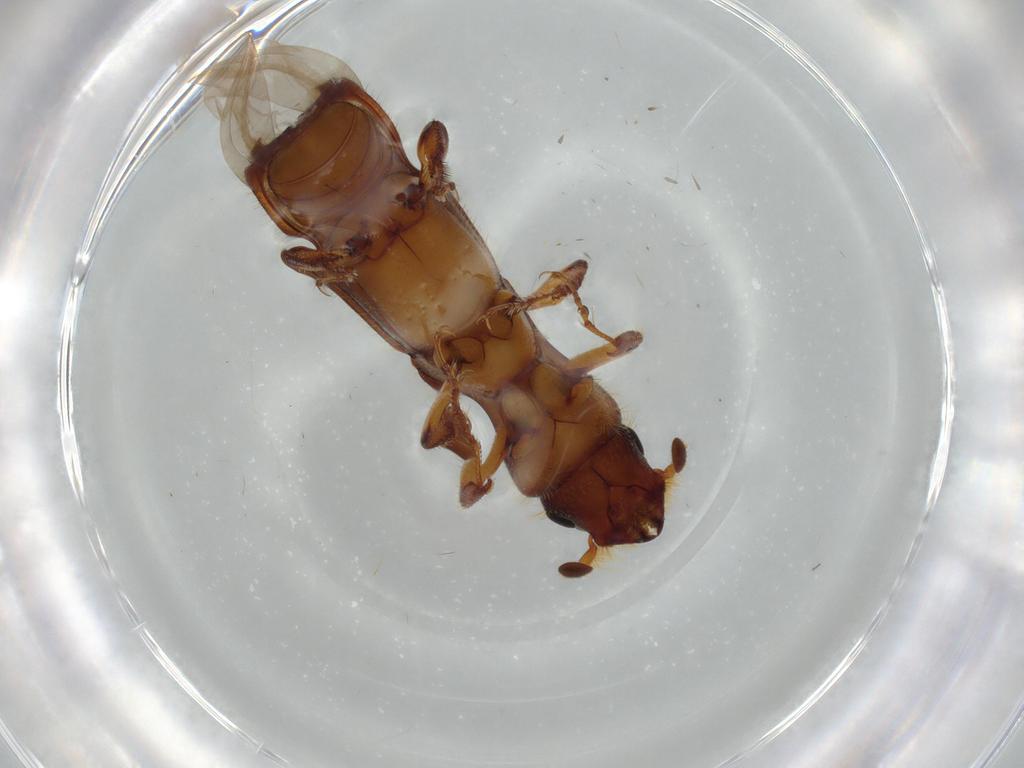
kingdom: Animalia
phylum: Arthropoda
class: Insecta
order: Coleoptera
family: Curculionidae
